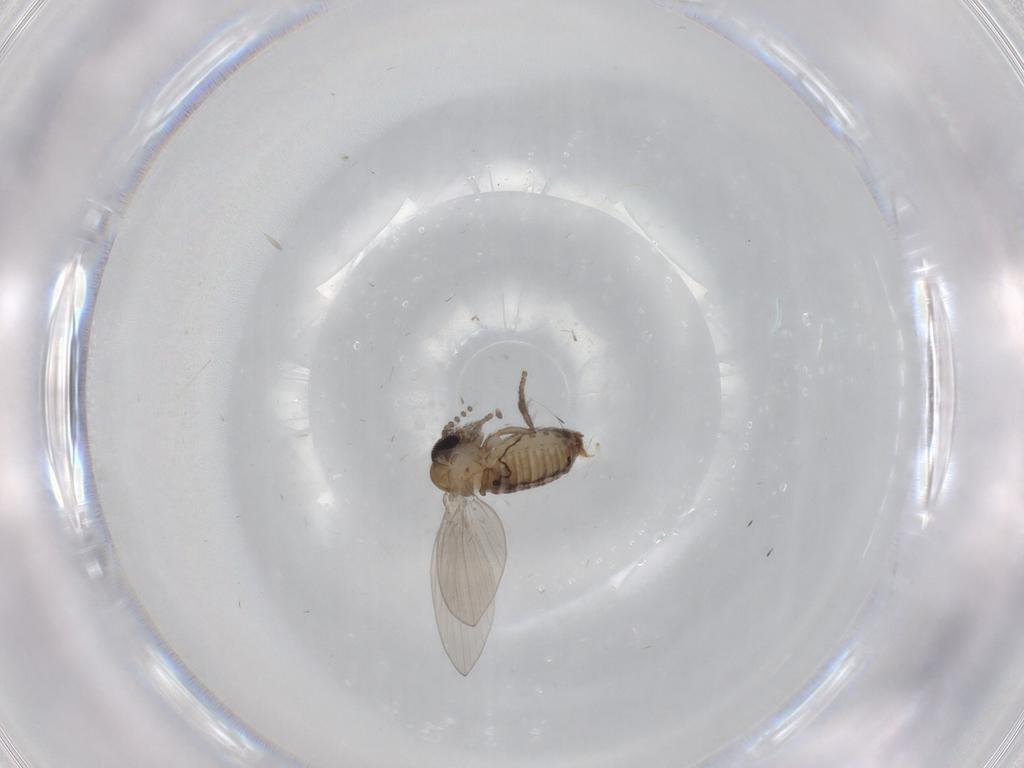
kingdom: Animalia
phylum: Arthropoda
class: Insecta
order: Diptera
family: Psychodidae
